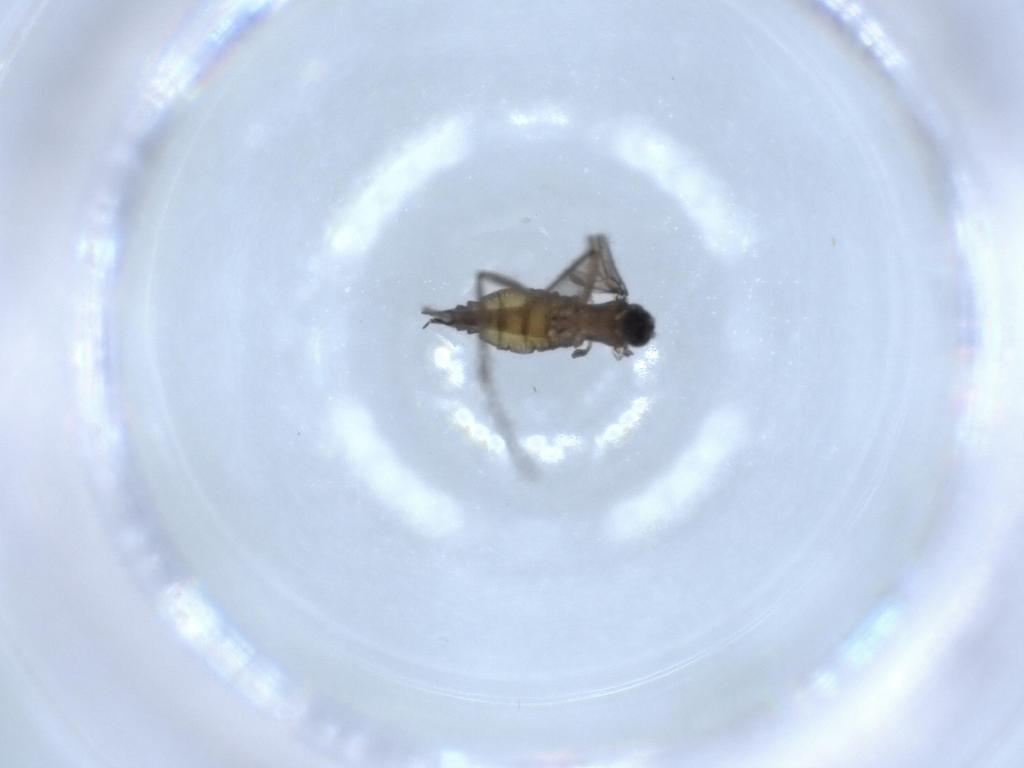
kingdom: Animalia
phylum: Arthropoda
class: Insecta
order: Diptera
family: Sciaridae
